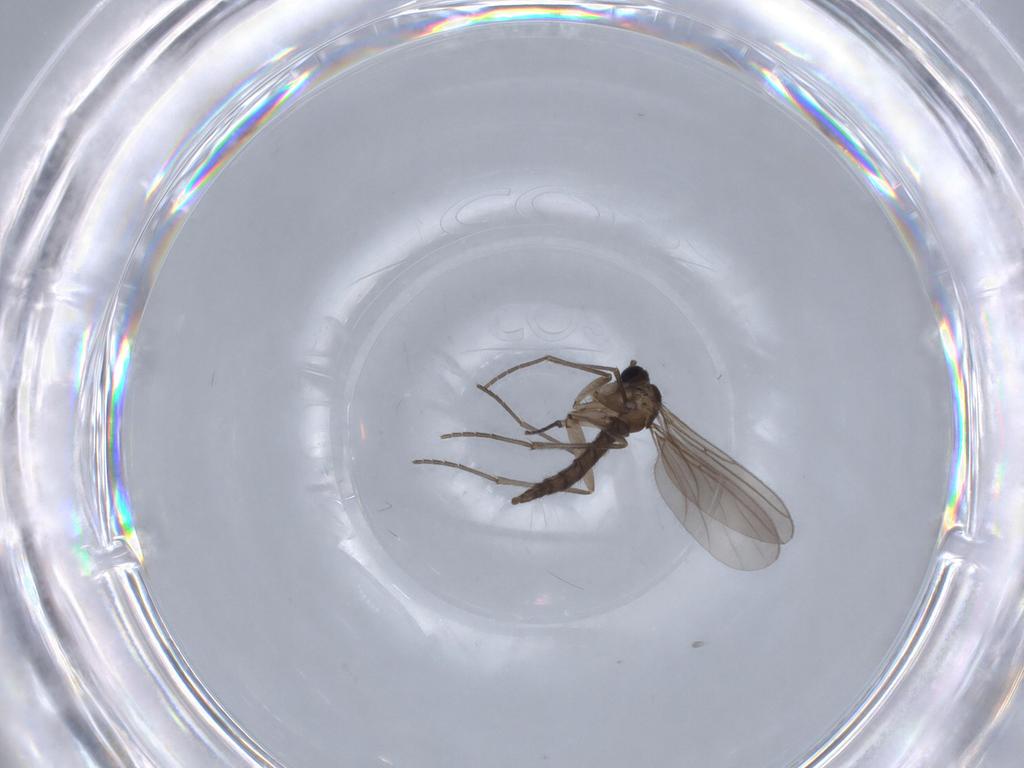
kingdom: Animalia
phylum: Arthropoda
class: Insecta
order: Diptera
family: Sciaridae
